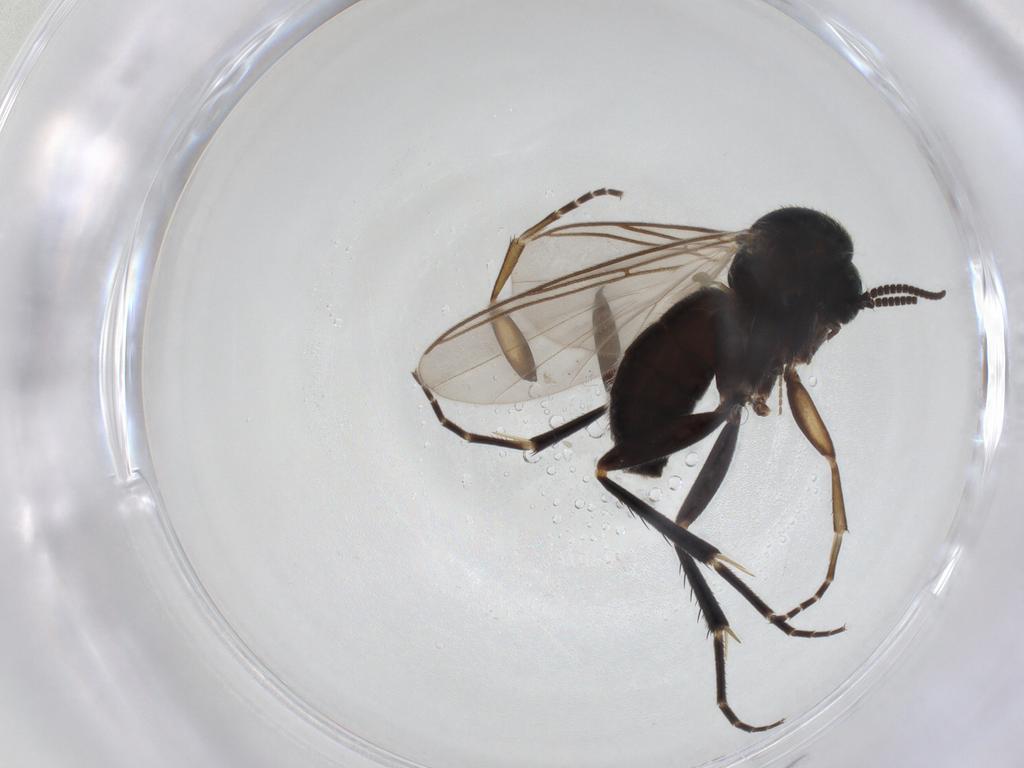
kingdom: Animalia
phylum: Arthropoda
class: Insecta
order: Diptera
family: Mycetophilidae
